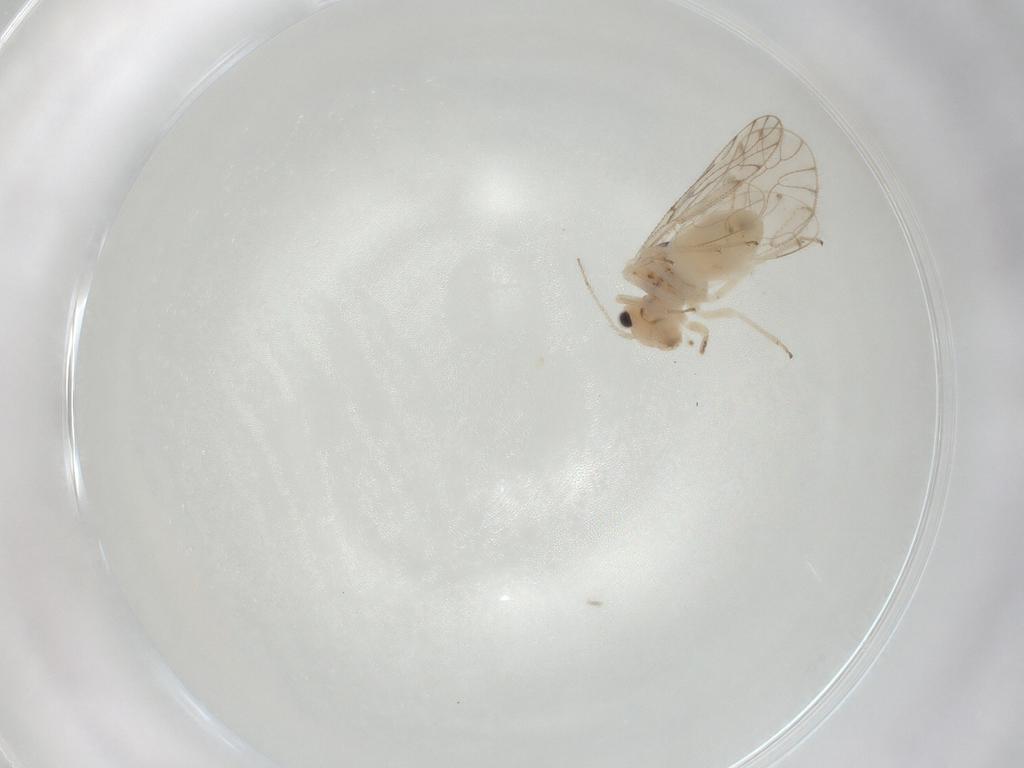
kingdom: Animalia
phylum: Arthropoda
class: Insecta
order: Psocodea
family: Trichopsocidae
